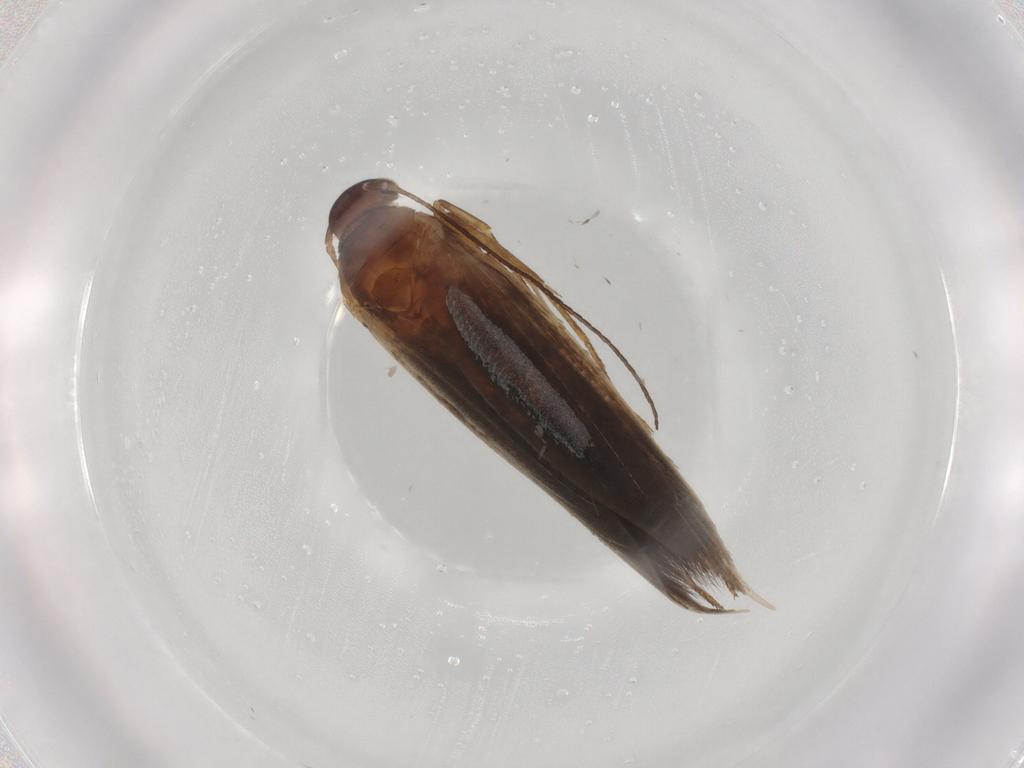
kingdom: Animalia
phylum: Arthropoda
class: Insecta
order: Lepidoptera
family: Scythrididae
